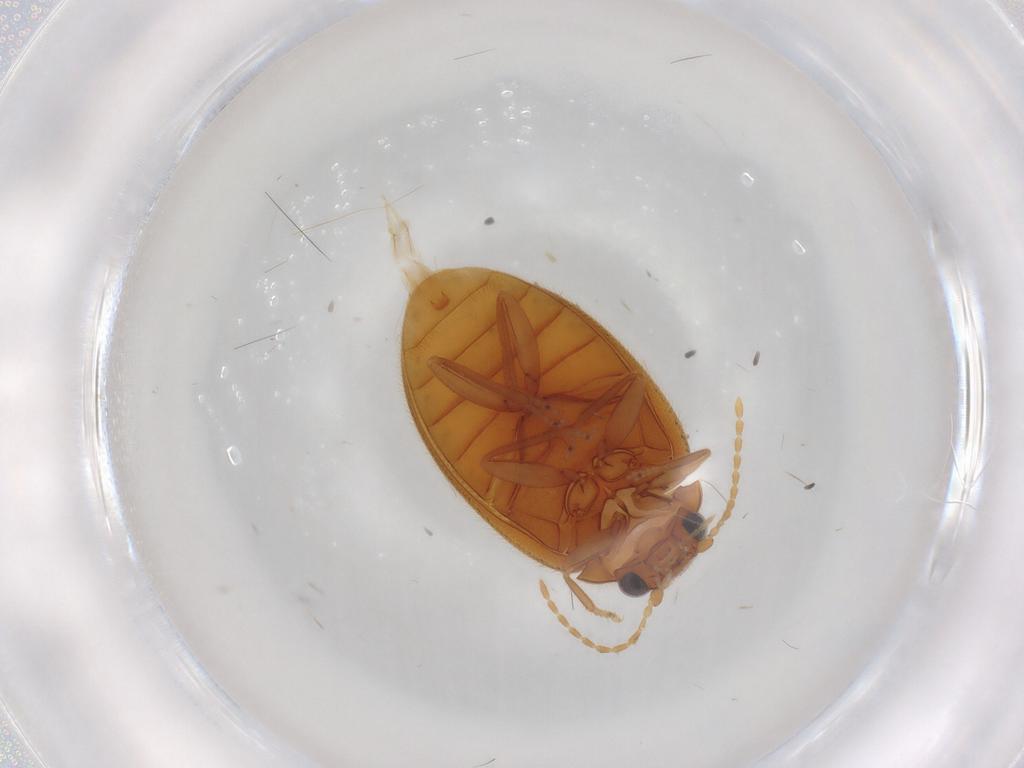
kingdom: Animalia
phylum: Arthropoda
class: Insecta
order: Coleoptera
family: Scirtidae
